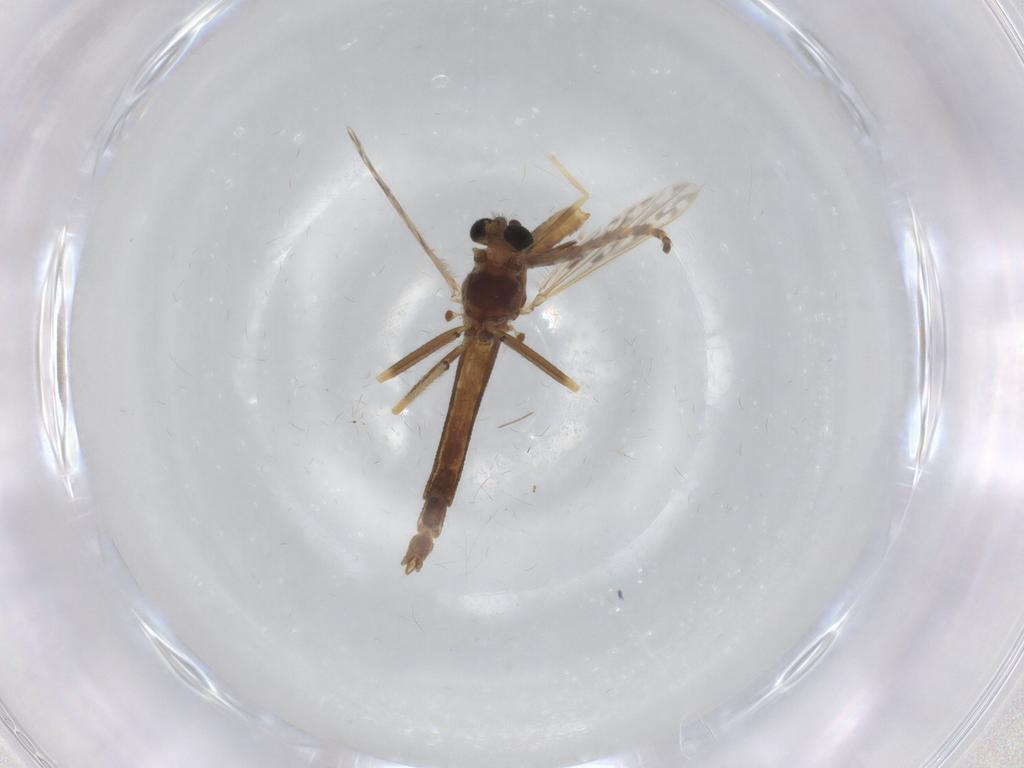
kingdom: Animalia
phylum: Arthropoda
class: Insecta
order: Diptera
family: Chironomidae
